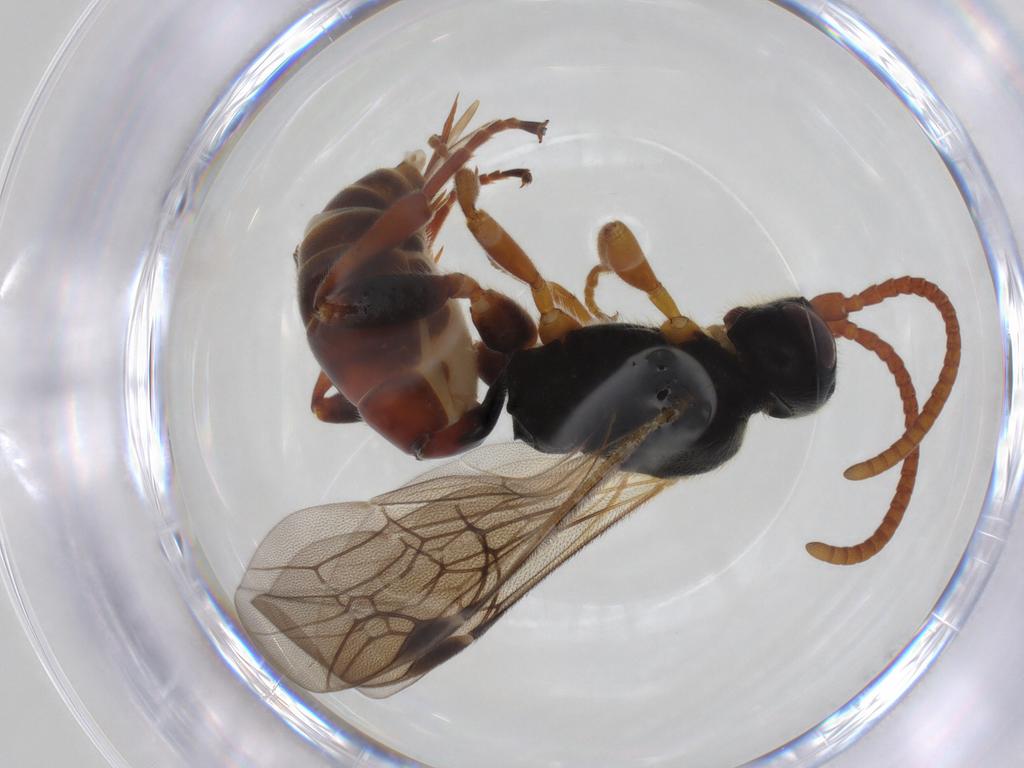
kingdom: Animalia
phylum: Arthropoda
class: Insecta
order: Hymenoptera
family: Ichneumonidae
